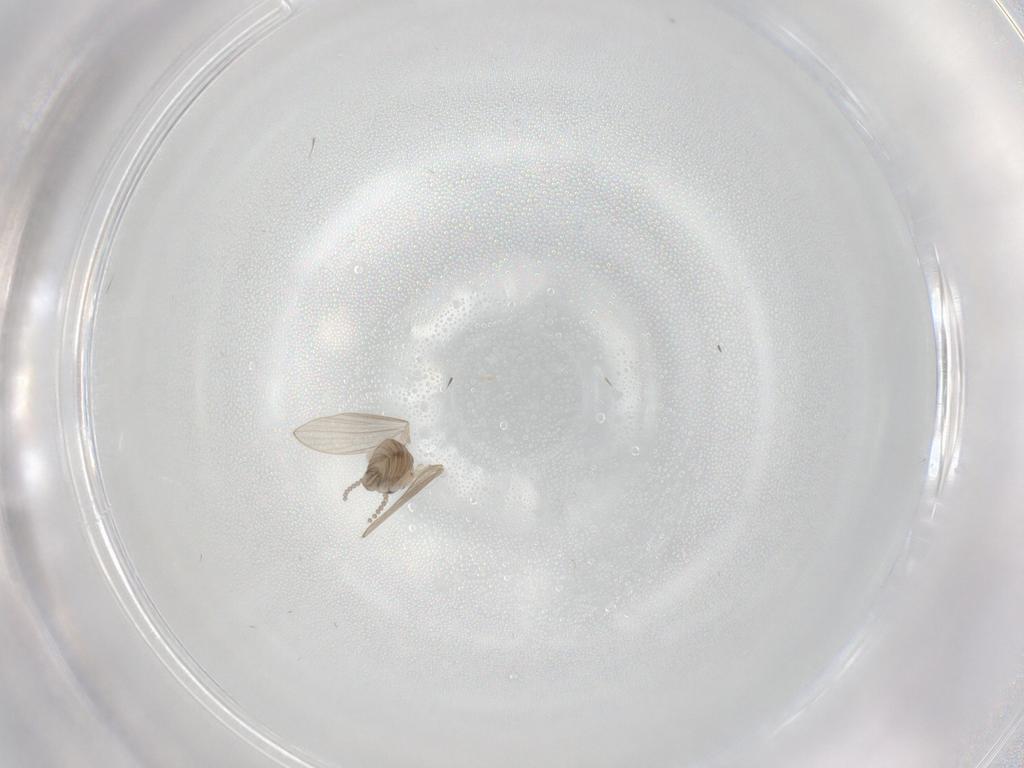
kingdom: Animalia
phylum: Arthropoda
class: Insecta
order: Diptera
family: Psychodidae
